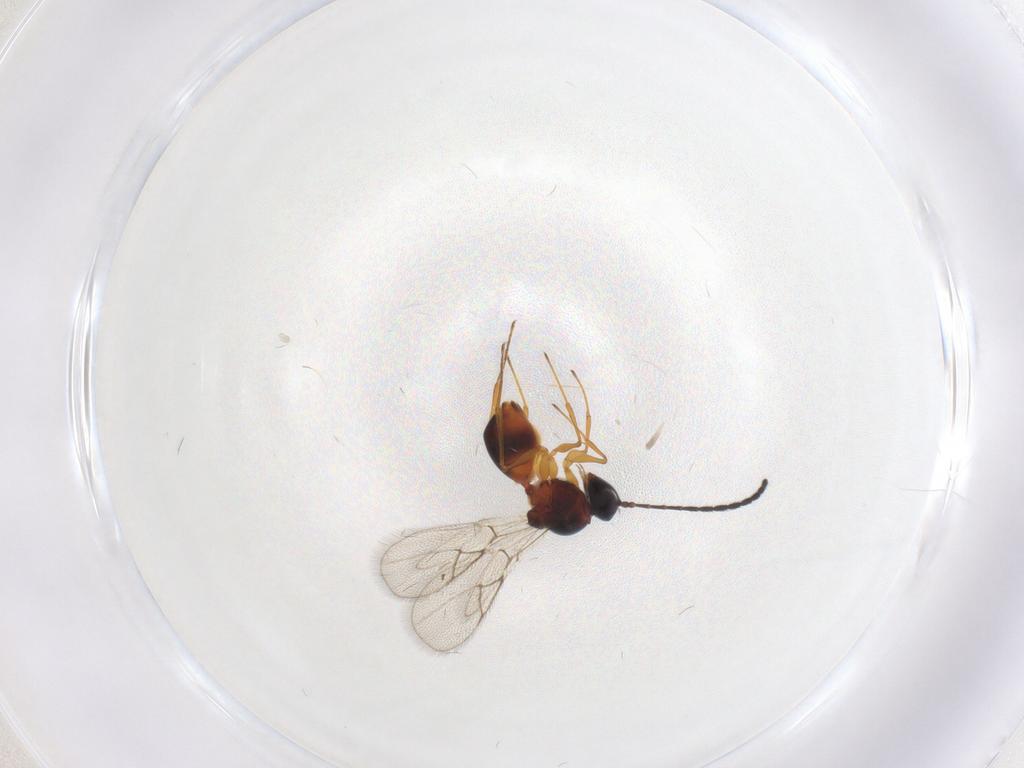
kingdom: Animalia
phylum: Arthropoda
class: Insecta
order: Hymenoptera
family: Figitidae
